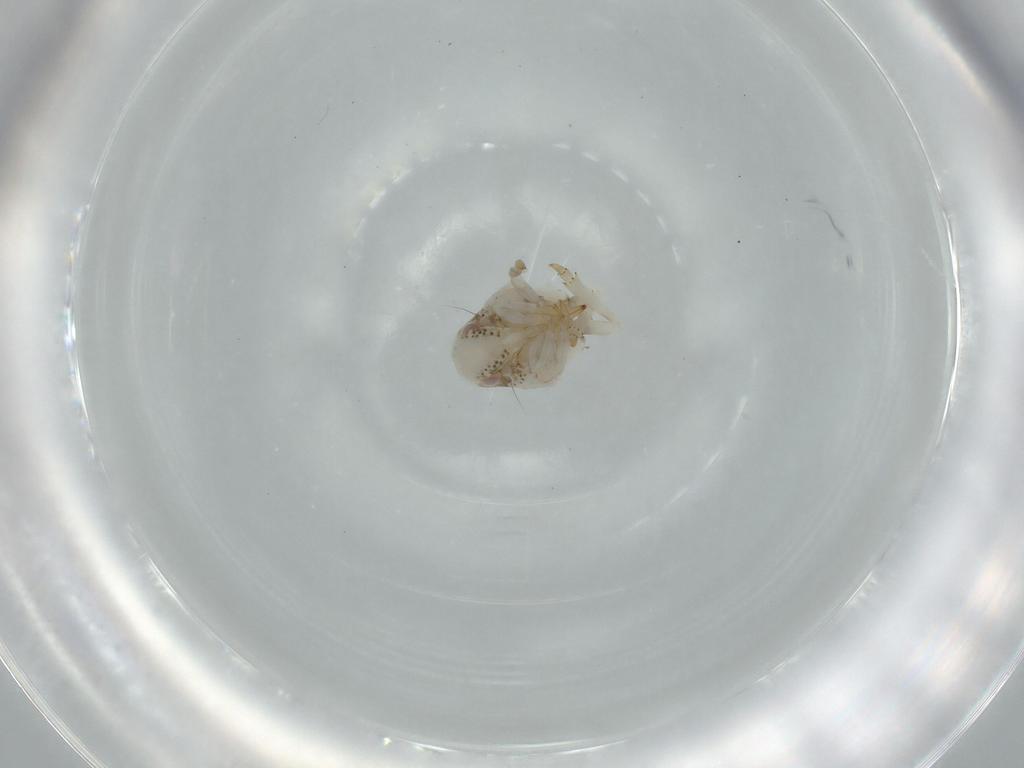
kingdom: Animalia
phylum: Arthropoda
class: Insecta
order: Hemiptera
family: Acanaloniidae
